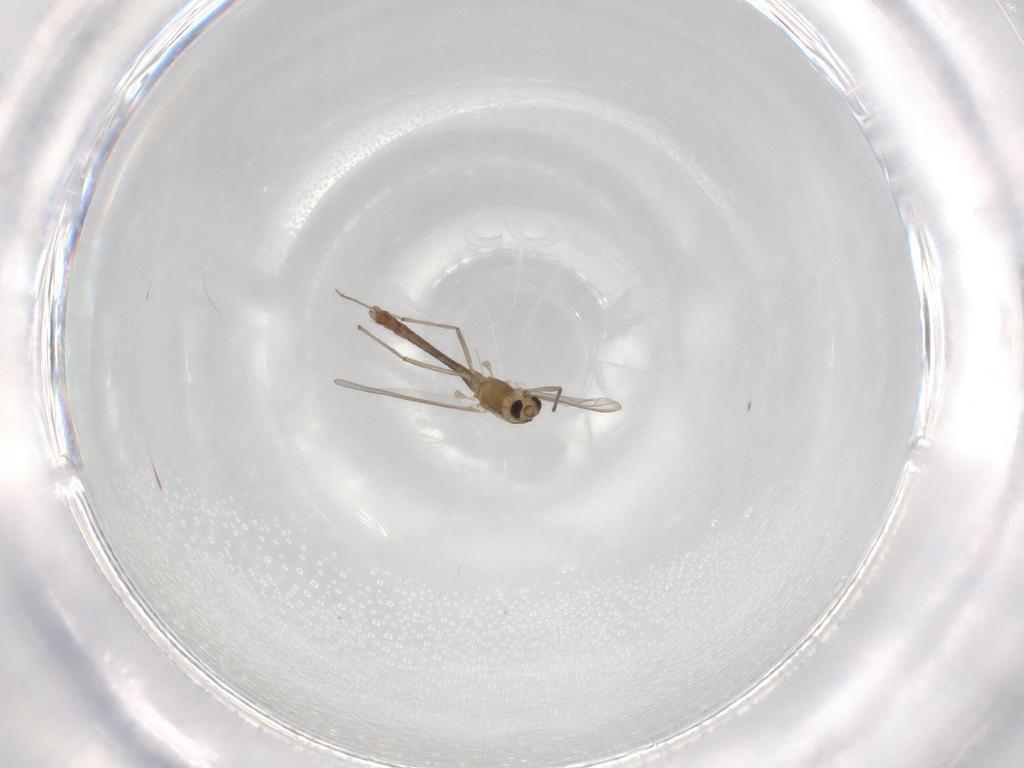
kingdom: Animalia
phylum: Arthropoda
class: Insecta
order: Diptera
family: Chironomidae
